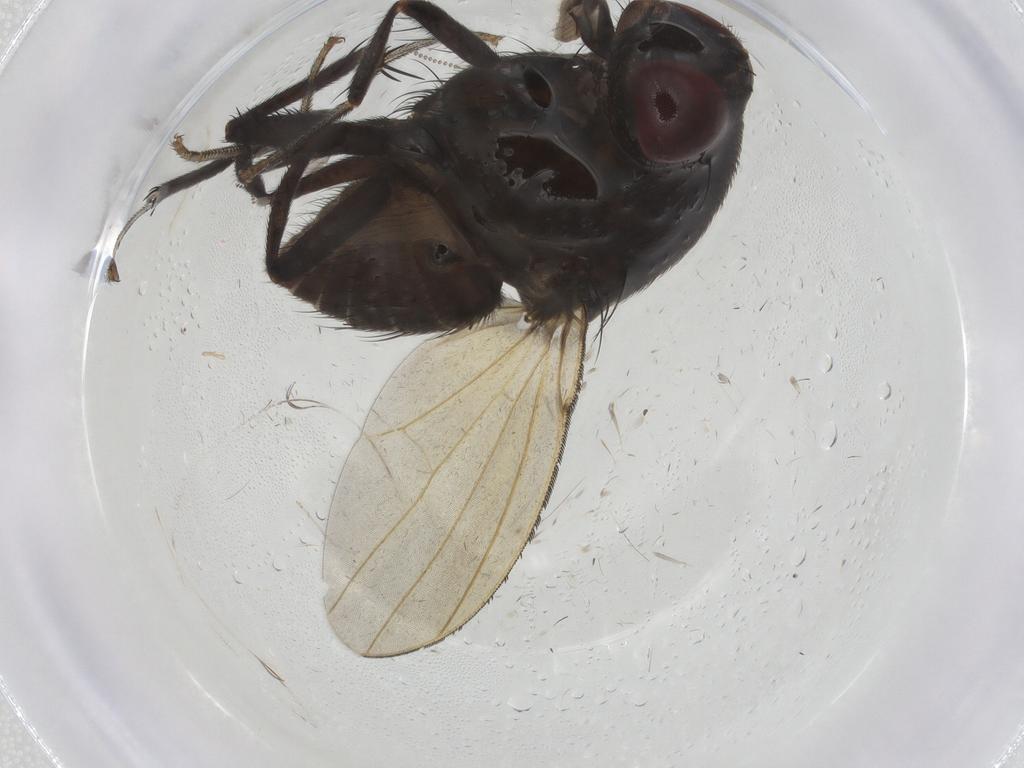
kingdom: Animalia
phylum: Arthropoda
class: Insecta
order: Diptera
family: Sciaridae
